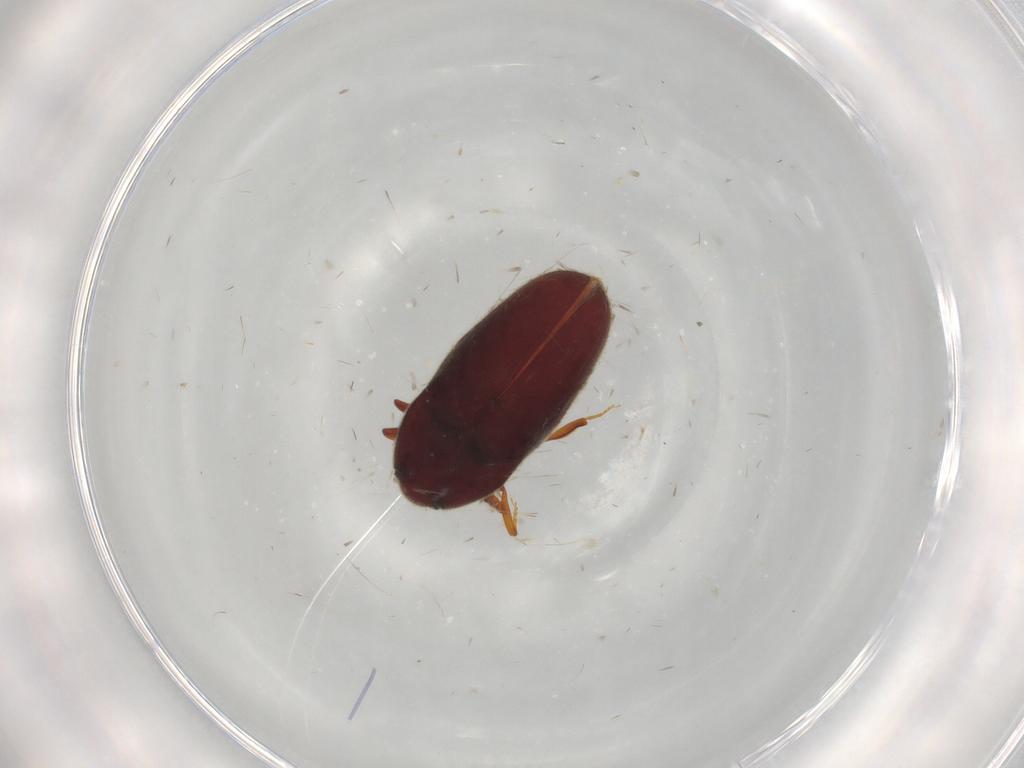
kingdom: Animalia
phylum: Arthropoda
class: Insecta
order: Coleoptera
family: Throscidae
